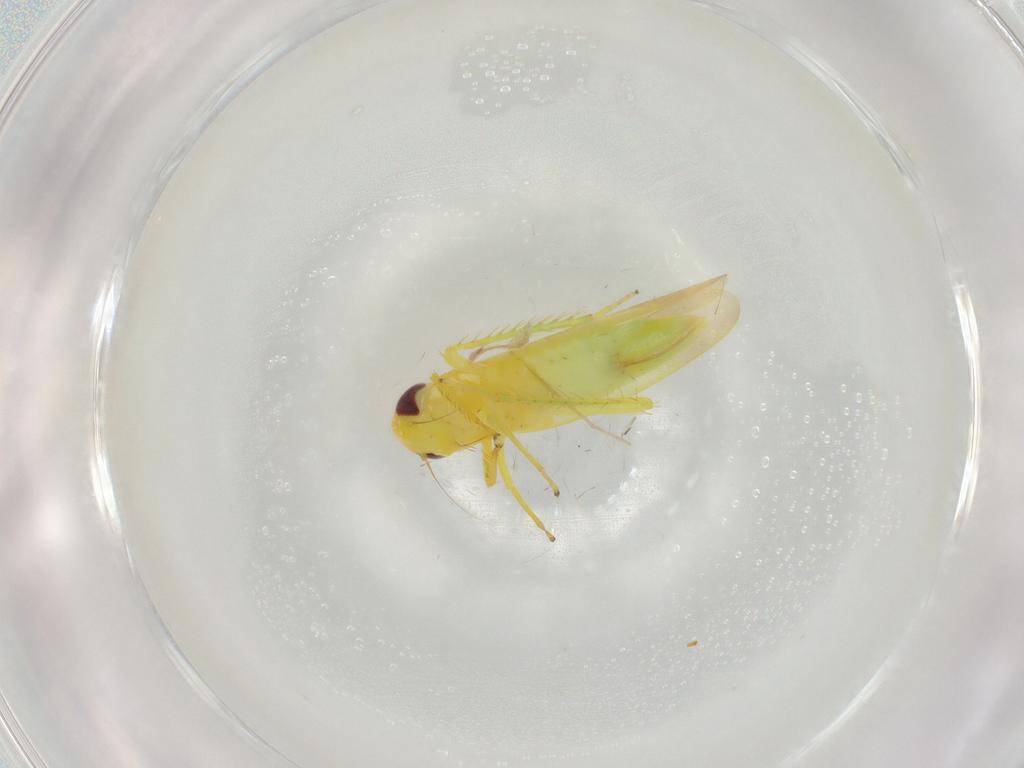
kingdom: Animalia
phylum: Arthropoda
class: Insecta
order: Hemiptera
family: Cicadellidae
